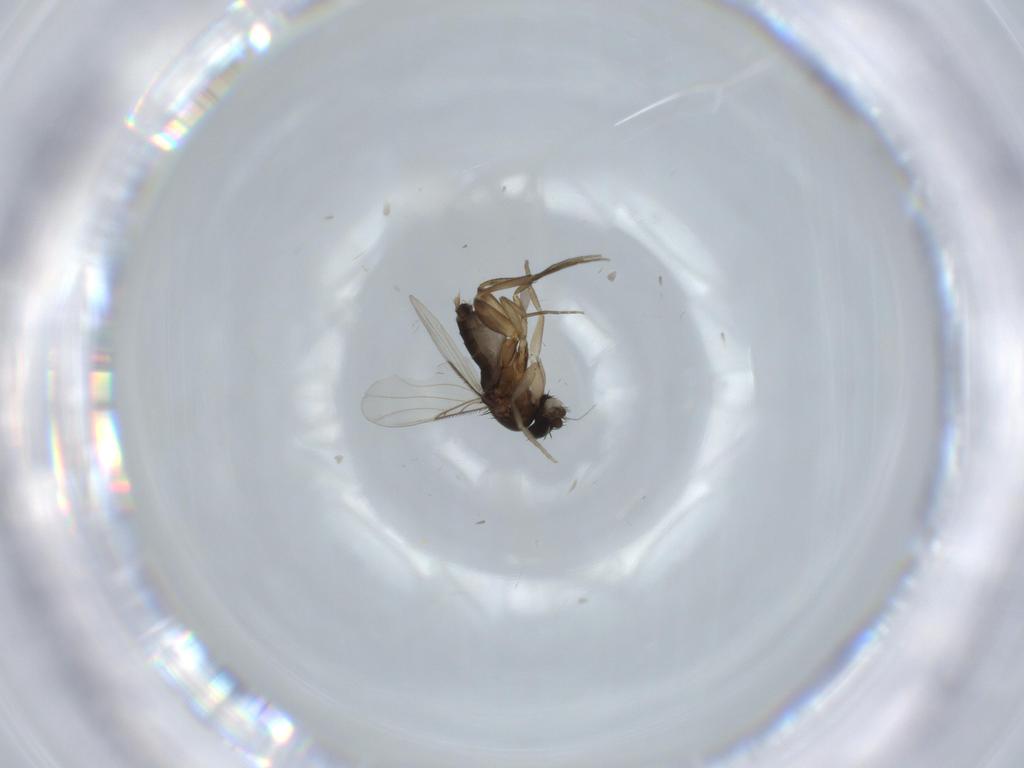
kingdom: Animalia
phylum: Arthropoda
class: Insecta
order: Diptera
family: Phoridae
